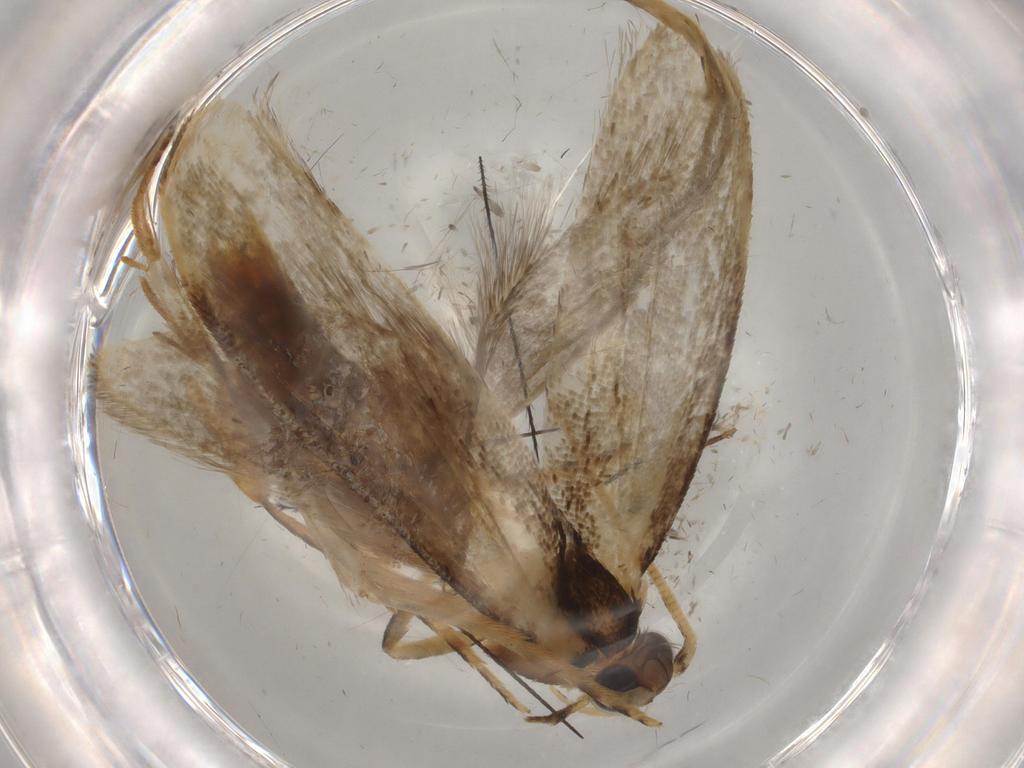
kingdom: Animalia
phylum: Arthropoda
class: Insecta
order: Lepidoptera
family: Tineidae
